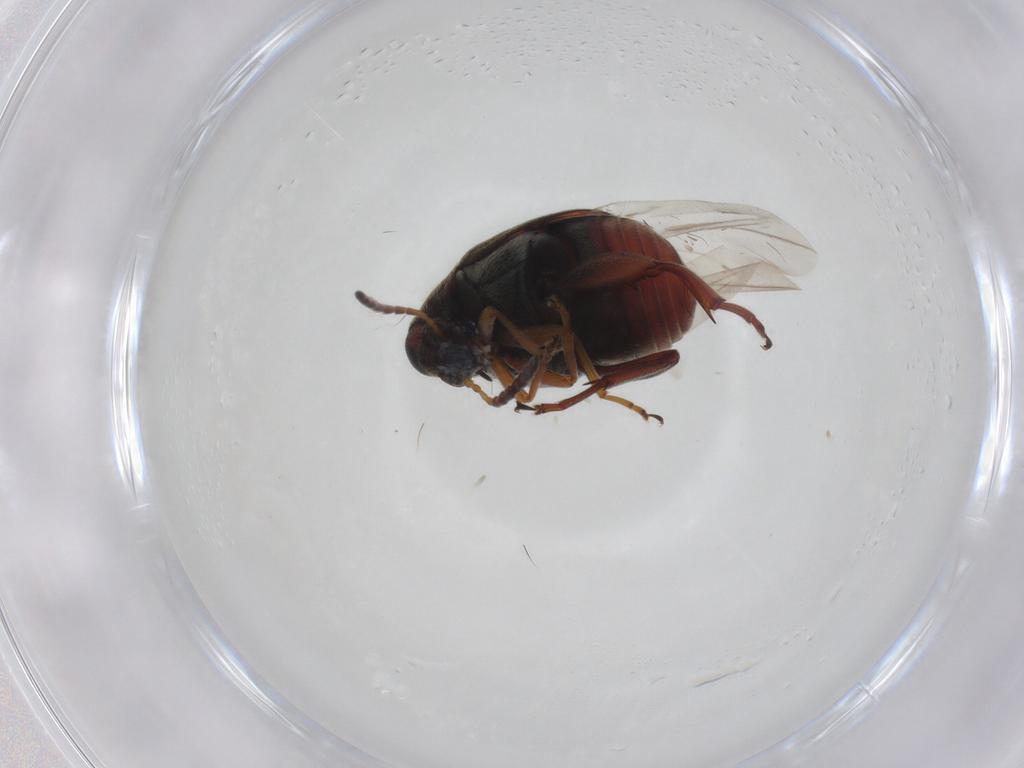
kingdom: Animalia
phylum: Arthropoda
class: Insecta
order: Coleoptera
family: Chrysomelidae
